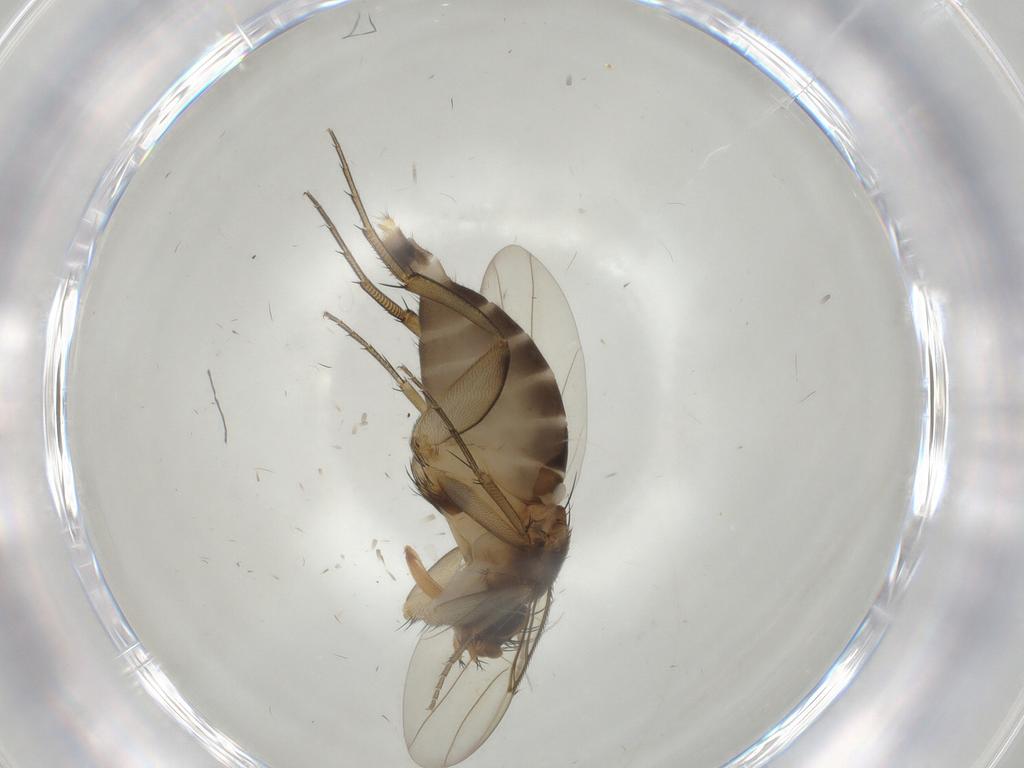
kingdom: Animalia
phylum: Arthropoda
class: Insecta
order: Diptera
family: Phoridae
